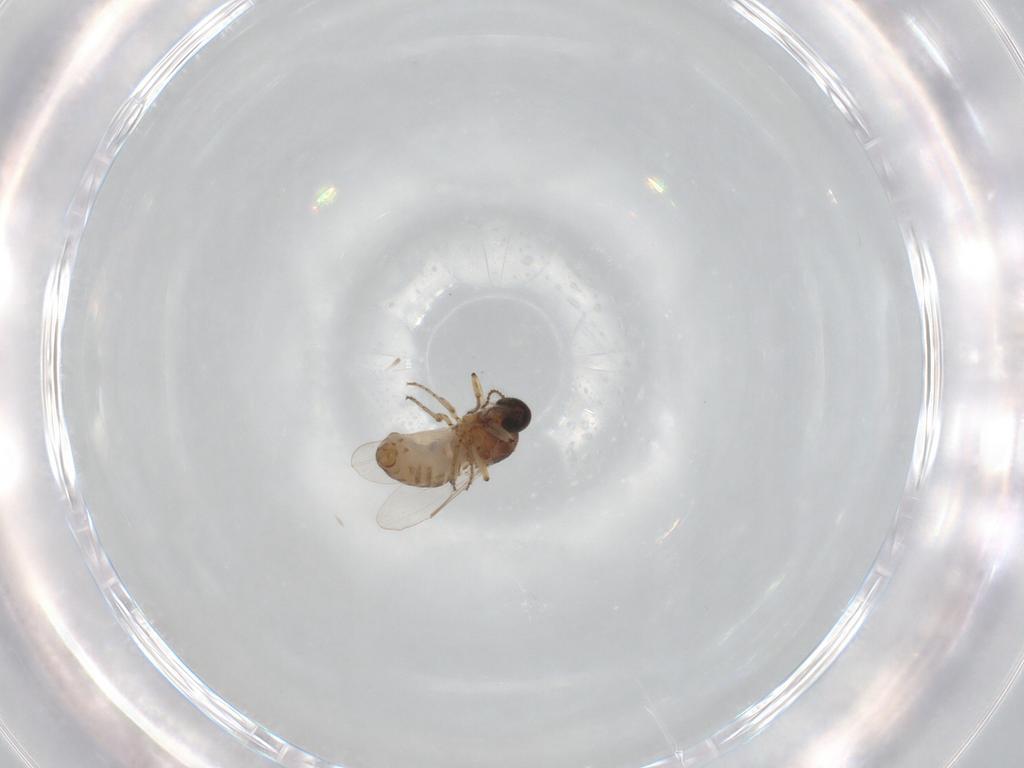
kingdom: Animalia
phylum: Arthropoda
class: Insecta
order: Diptera
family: Ceratopogonidae
